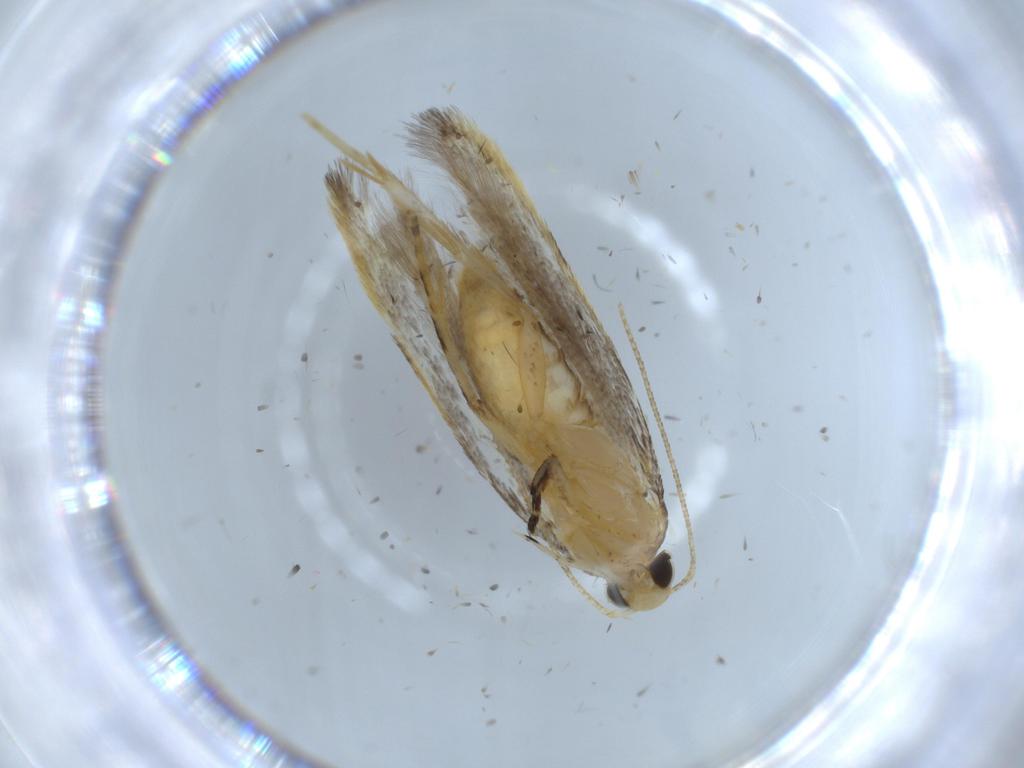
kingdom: Animalia
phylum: Arthropoda
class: Insecta
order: Lepidoptera
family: Autostichidae
